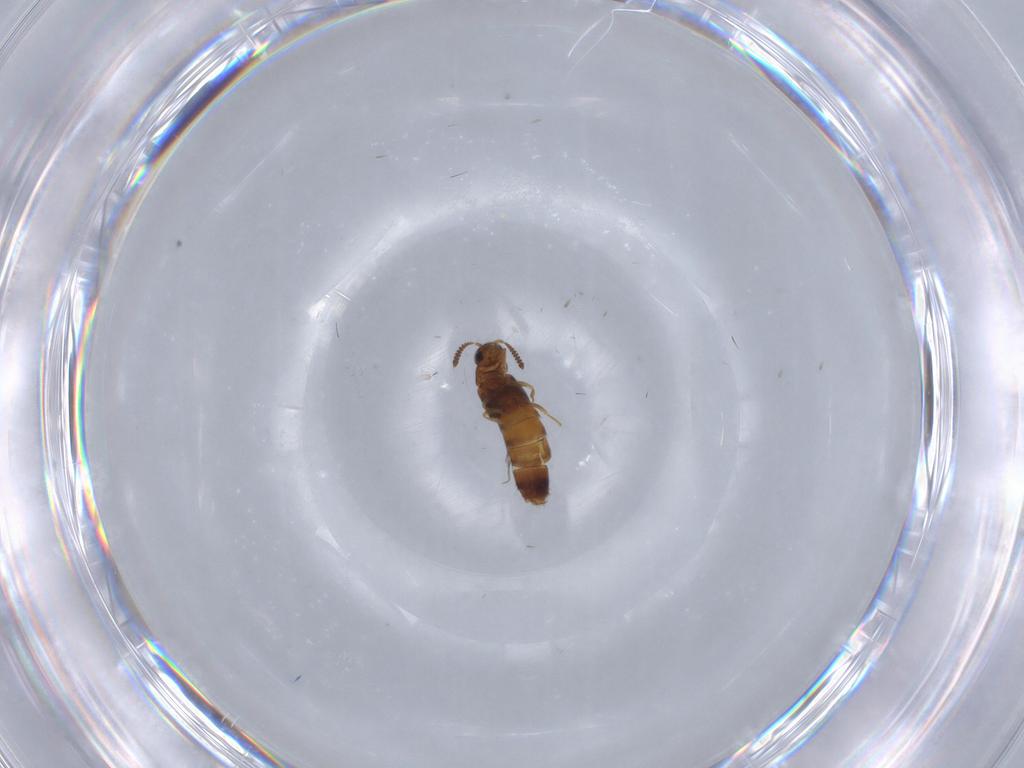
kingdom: Animalia
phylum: Arthropoda
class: Insecta
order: Coleoptera
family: Staphylinidae
